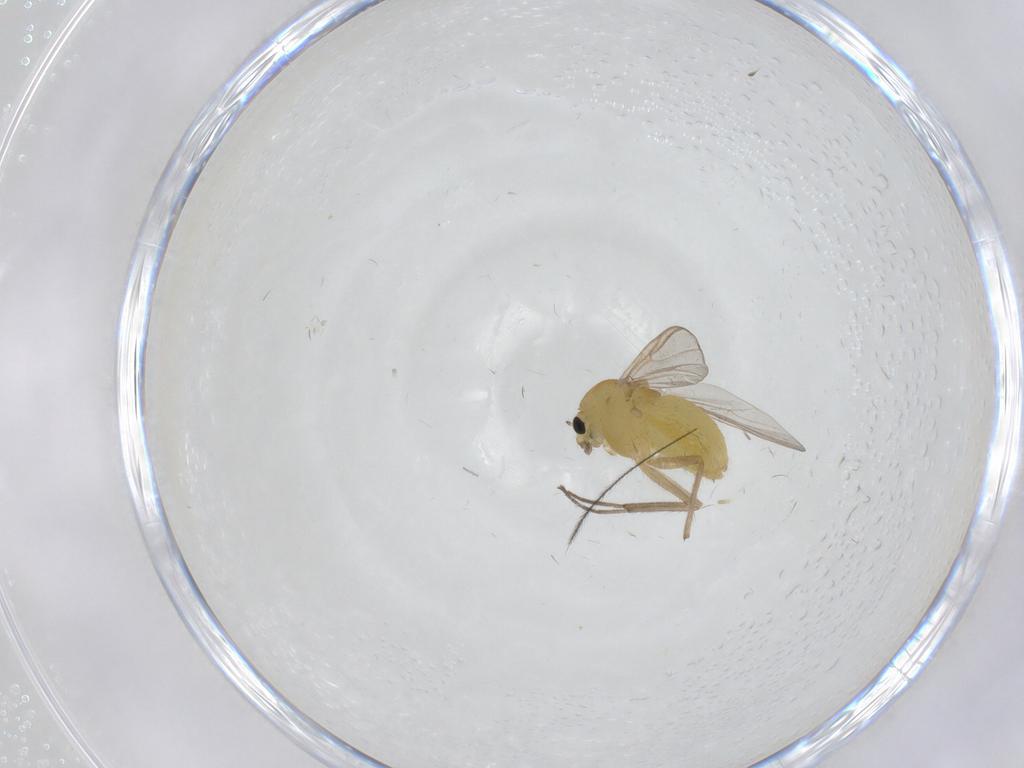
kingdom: Animalia
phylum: Arthropoda
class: Insecta
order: Diptera
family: Chironomidae
